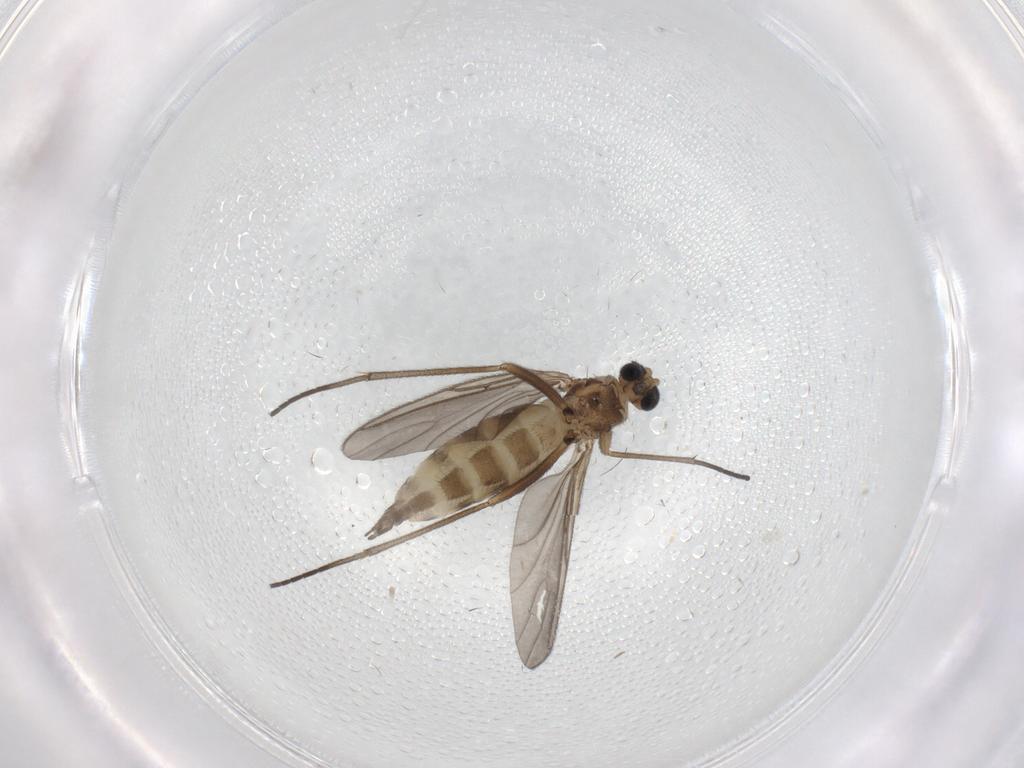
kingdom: Animalia
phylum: Arthropoda
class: Insecta
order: Diptera
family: Sciaridae
